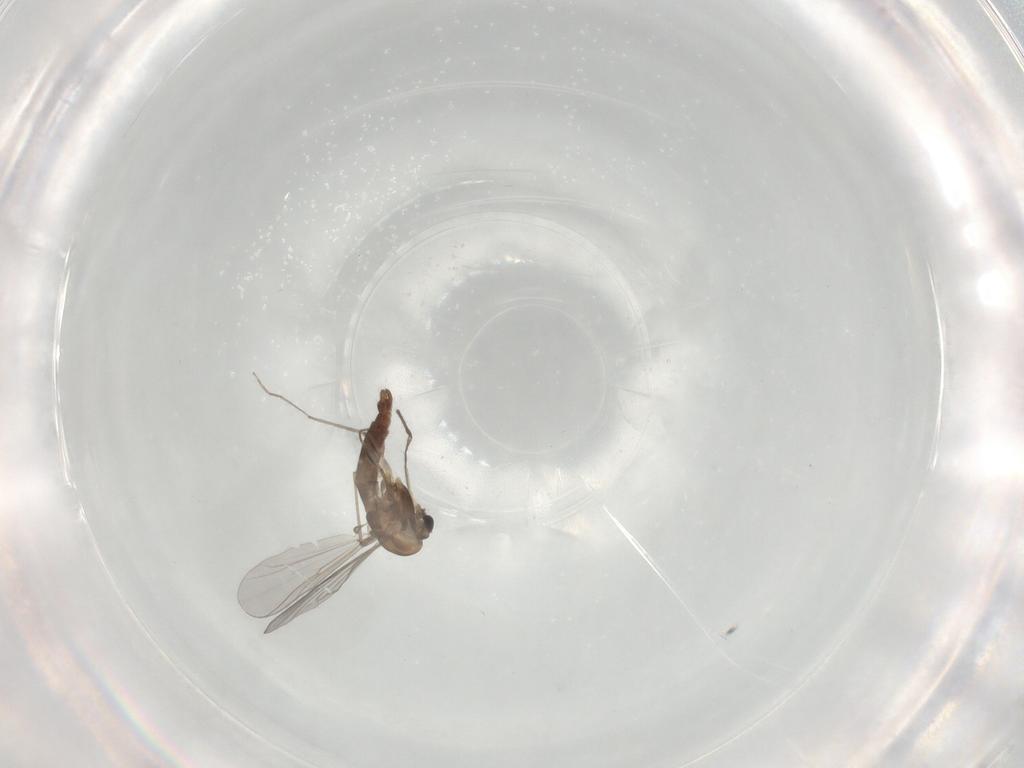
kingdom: Animalia
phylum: Arthropoda
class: Insecta
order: Diptera
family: Chironomidae
